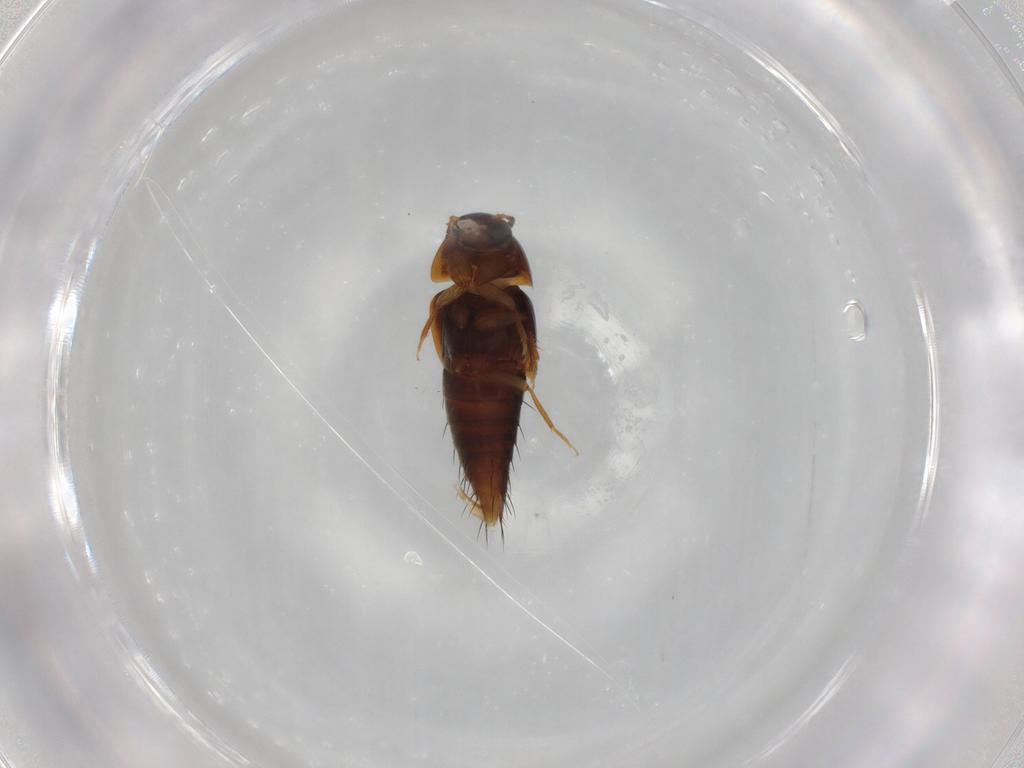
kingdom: Animalia
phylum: Arthropoda
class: Insecta
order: Coleoptera
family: Staphylinidae
